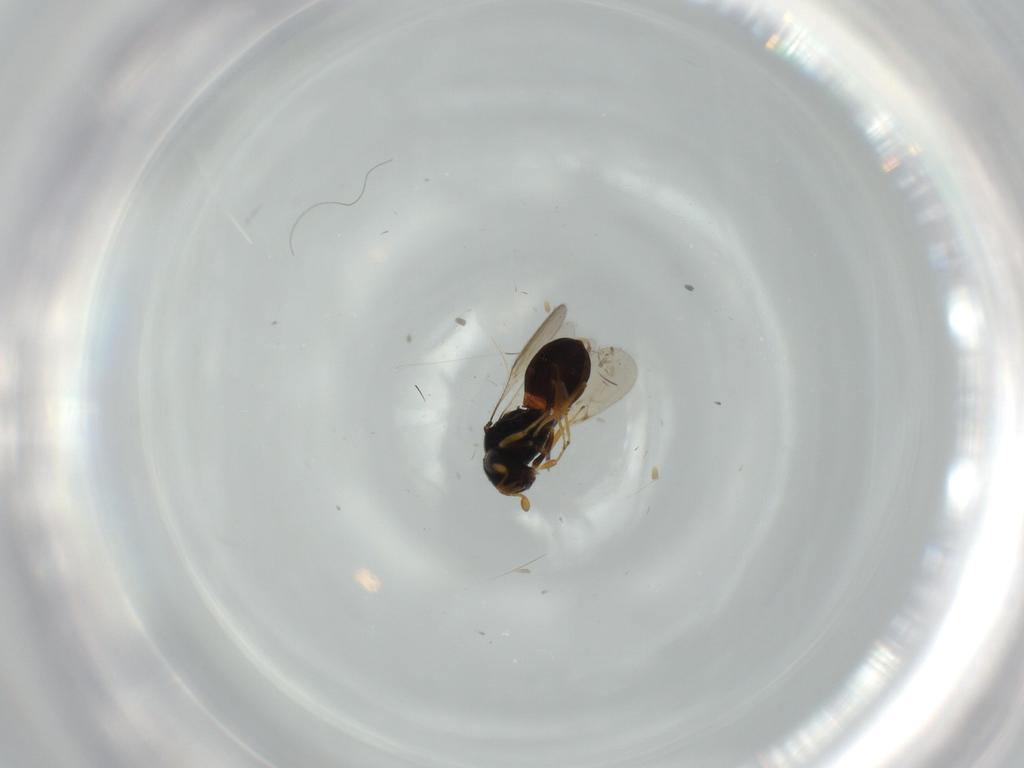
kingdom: Animalia
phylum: Arthropoda
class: Insecta
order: Hymenoptera
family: Scelionidae
